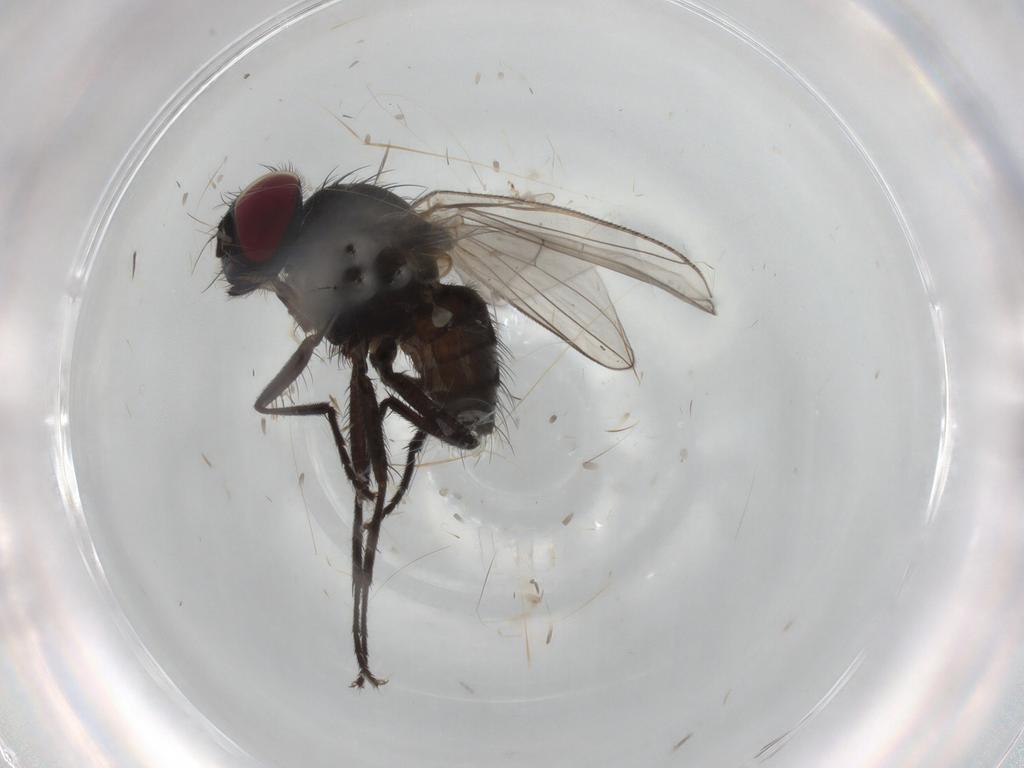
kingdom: Animalia
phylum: Arthropoda
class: Insecta
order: Diptera
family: Muscidae
